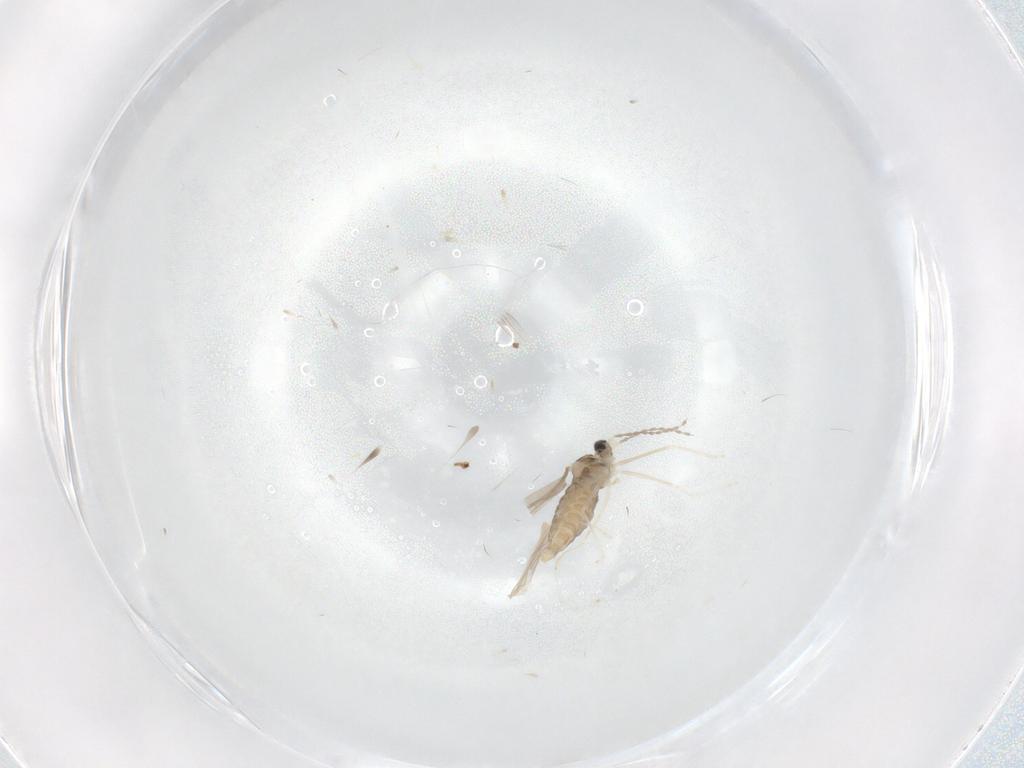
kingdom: Animalia
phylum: Arthropoda
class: Insecta
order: Diptera
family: Cecidomyiidae
